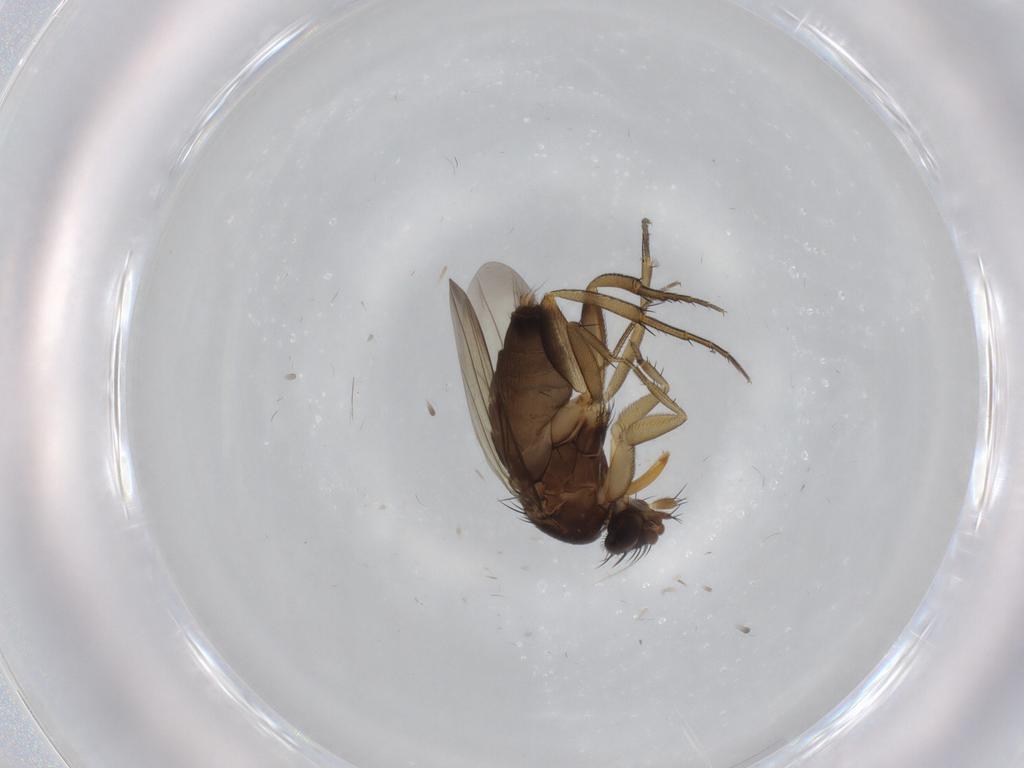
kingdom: Animalia
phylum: Arthropoda
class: Insecta
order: Diptera
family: Phoridae
